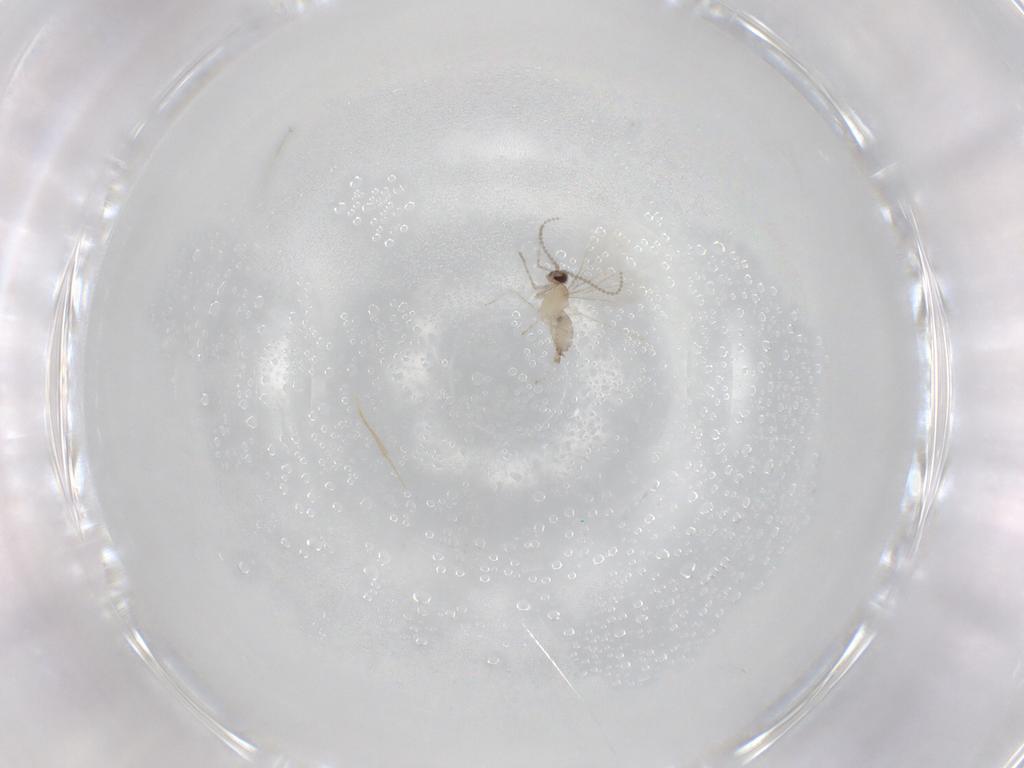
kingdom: Animalia
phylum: Arthropoda
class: Insecta
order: Diptera
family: Cecidomyiidae
